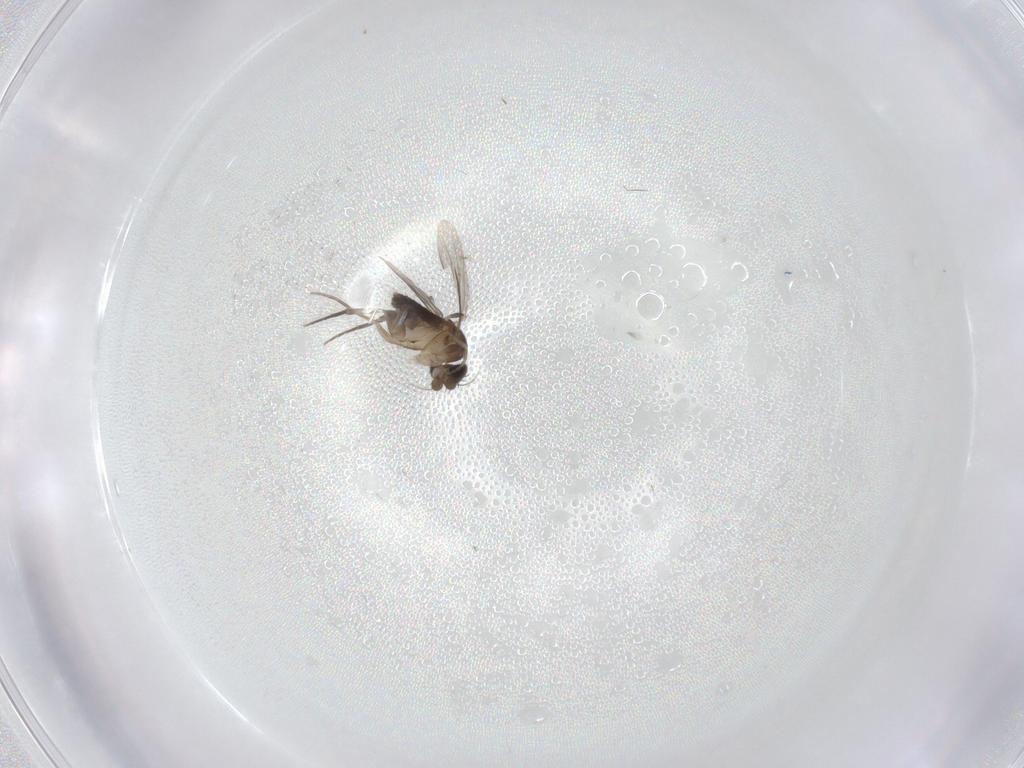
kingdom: Animalia
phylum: Arthropoda
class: Insecta
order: Diptera
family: Phoridae
